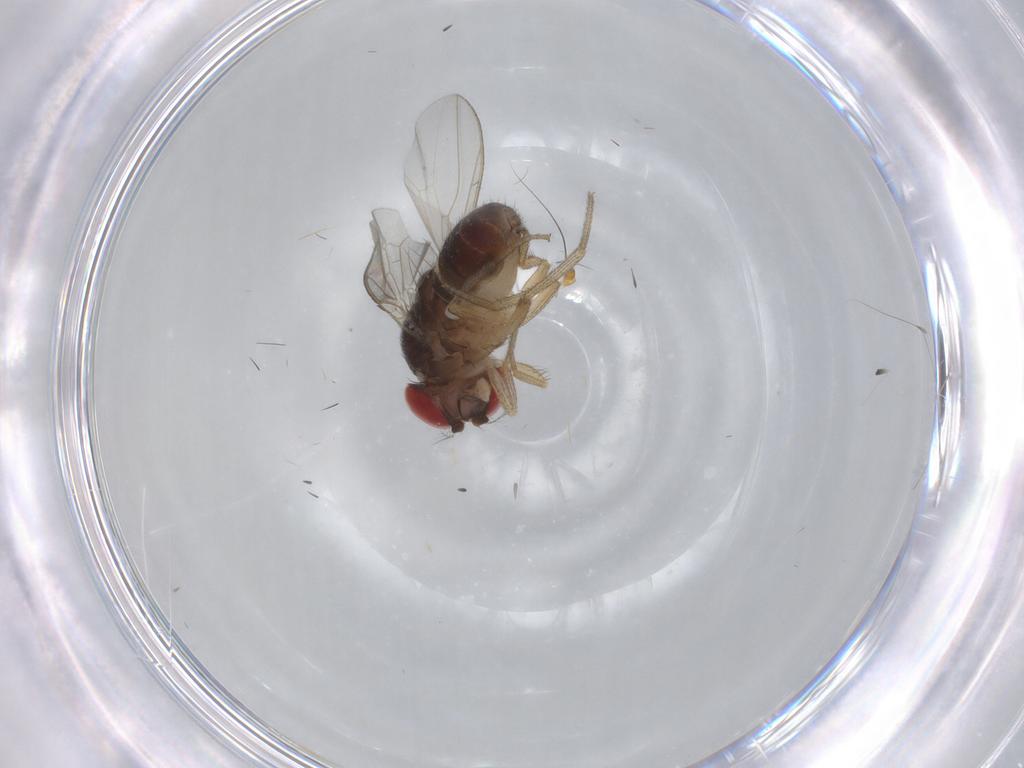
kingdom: Animalia
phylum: Arthropoda
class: Insecta
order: Diptera
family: Drosophilidae
